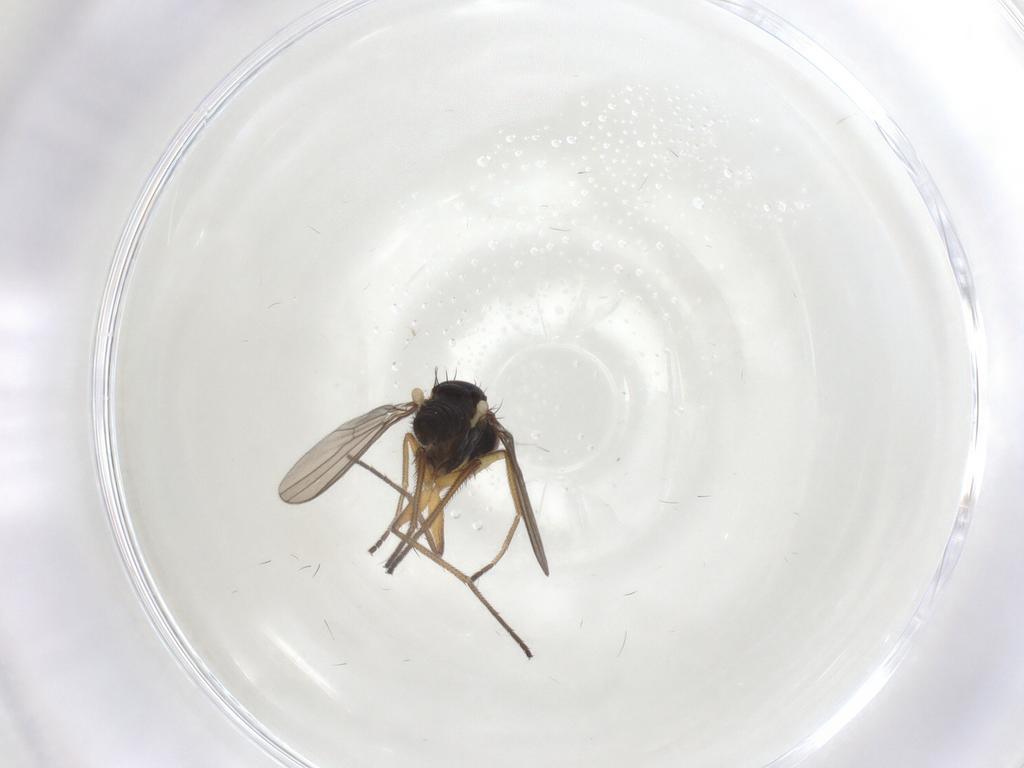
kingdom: Animalia
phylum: Arthropoda
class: Insecta
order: Diptera
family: Dolichopodidae
